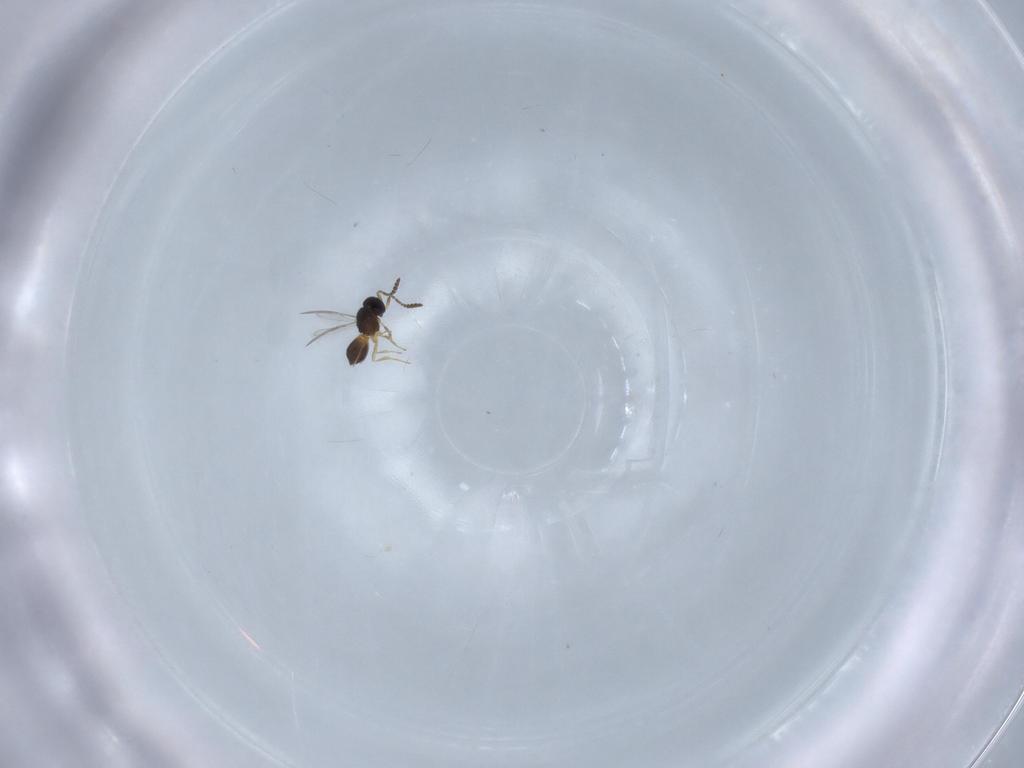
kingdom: Animalia
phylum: Arthropoda
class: Insecta
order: Hymenoptera
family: Scelionidae
